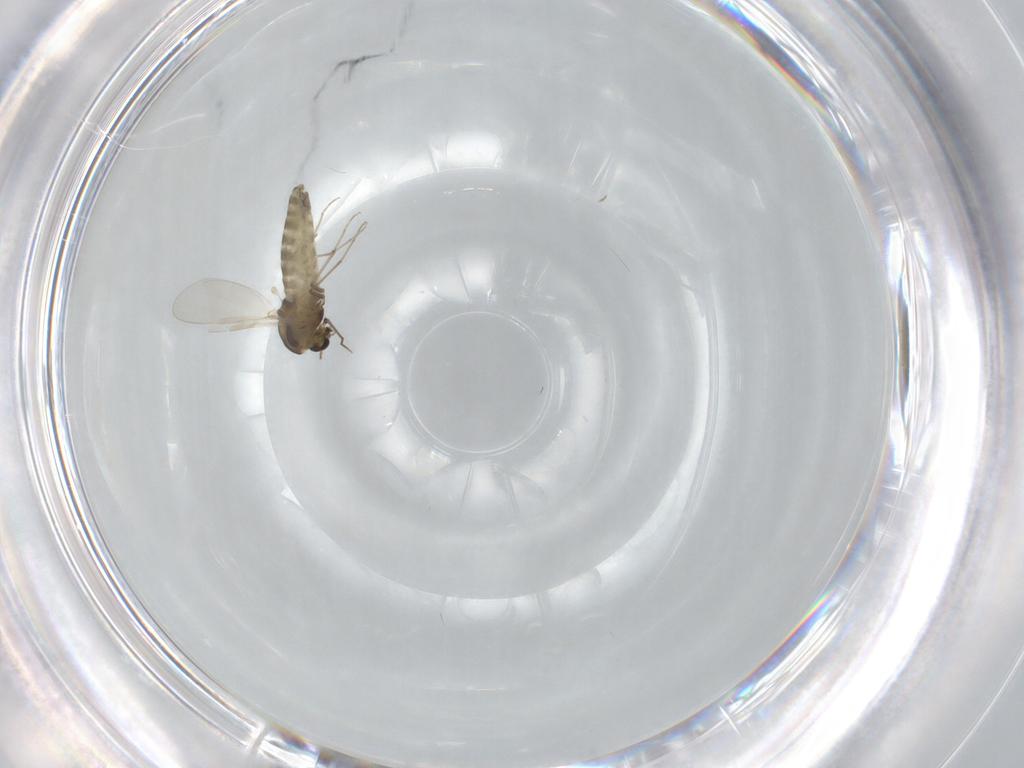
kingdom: Animalia
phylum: Arthropoda
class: Insecta
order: Diptera
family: Chironomidae
